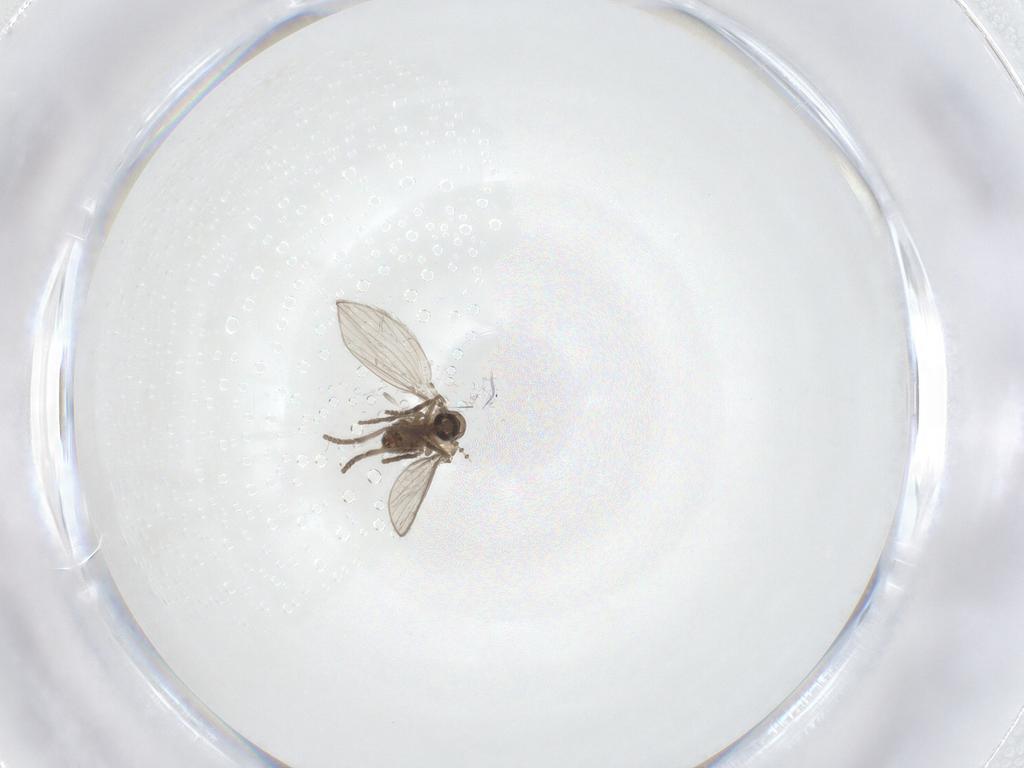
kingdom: Animalia
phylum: Arthropoda
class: Insecta
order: Diptera
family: Psychodidae
